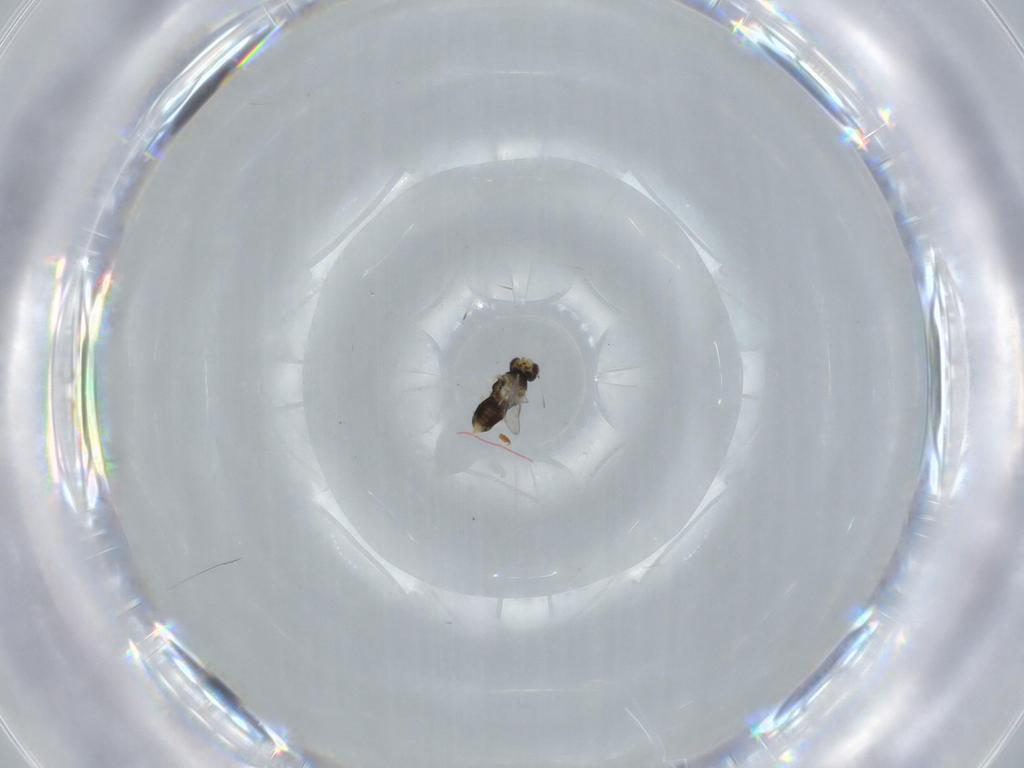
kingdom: Animalia
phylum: Arthropoda
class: Insecta
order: Hymenoptera
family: Aphelinidae
